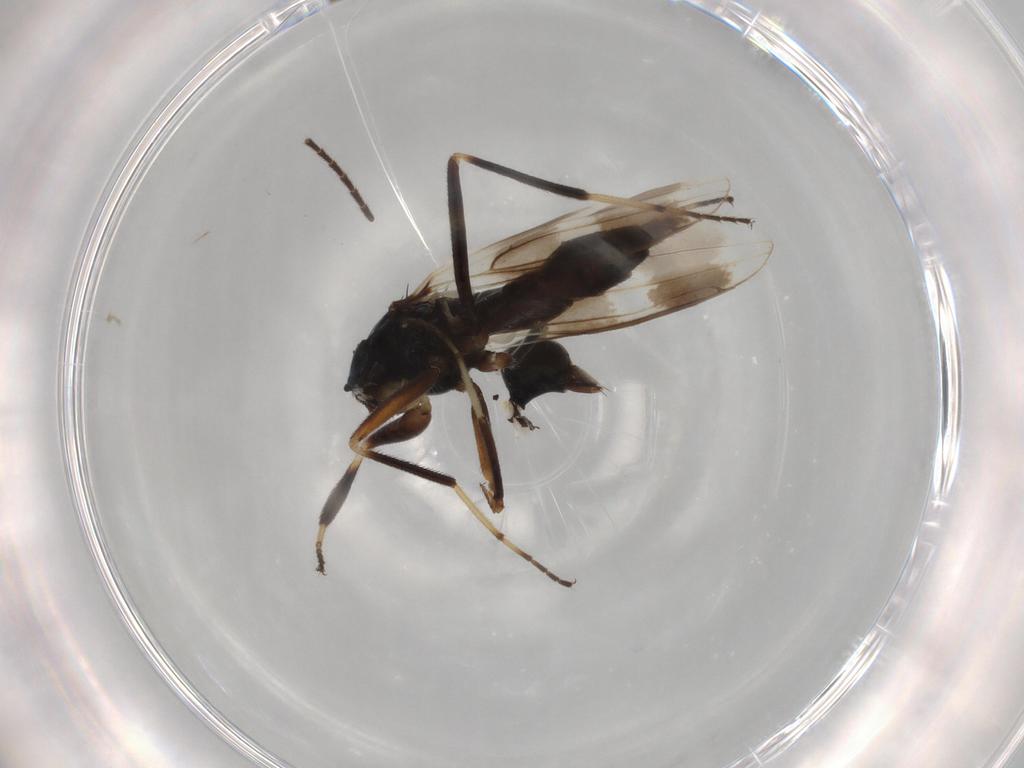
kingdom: Animalia
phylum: Arthropoda
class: Insecta
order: Diptera
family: Hybotidae
